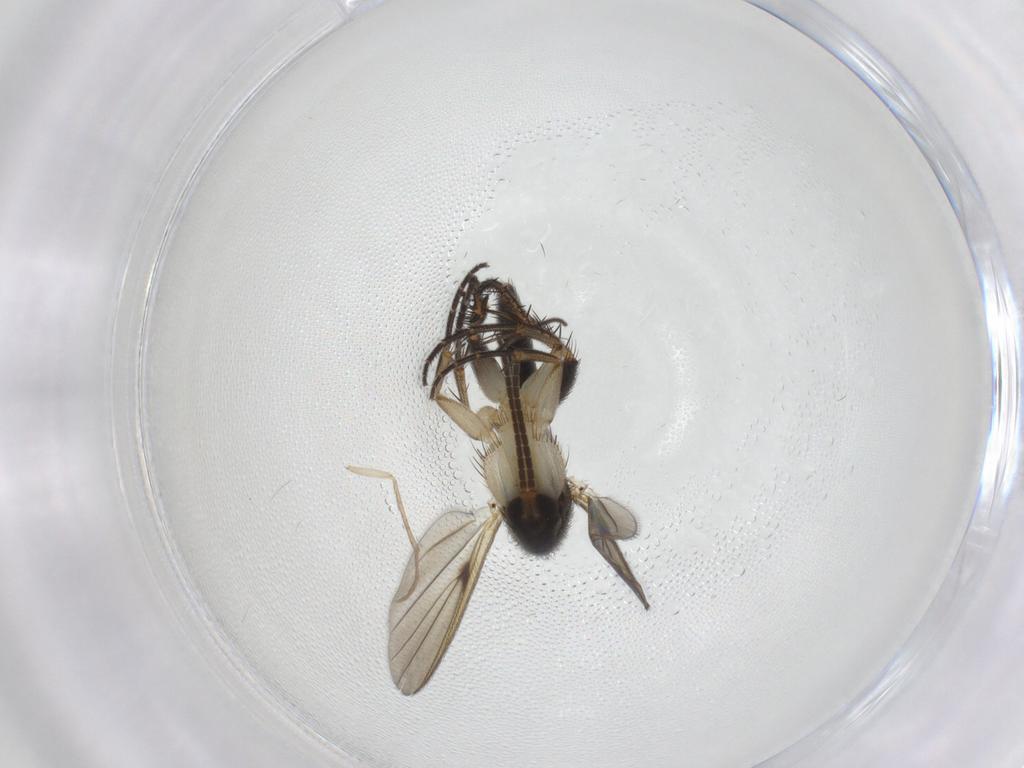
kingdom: Animalia
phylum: Arthropoda
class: Insecta
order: Diptera
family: Sciaridae
